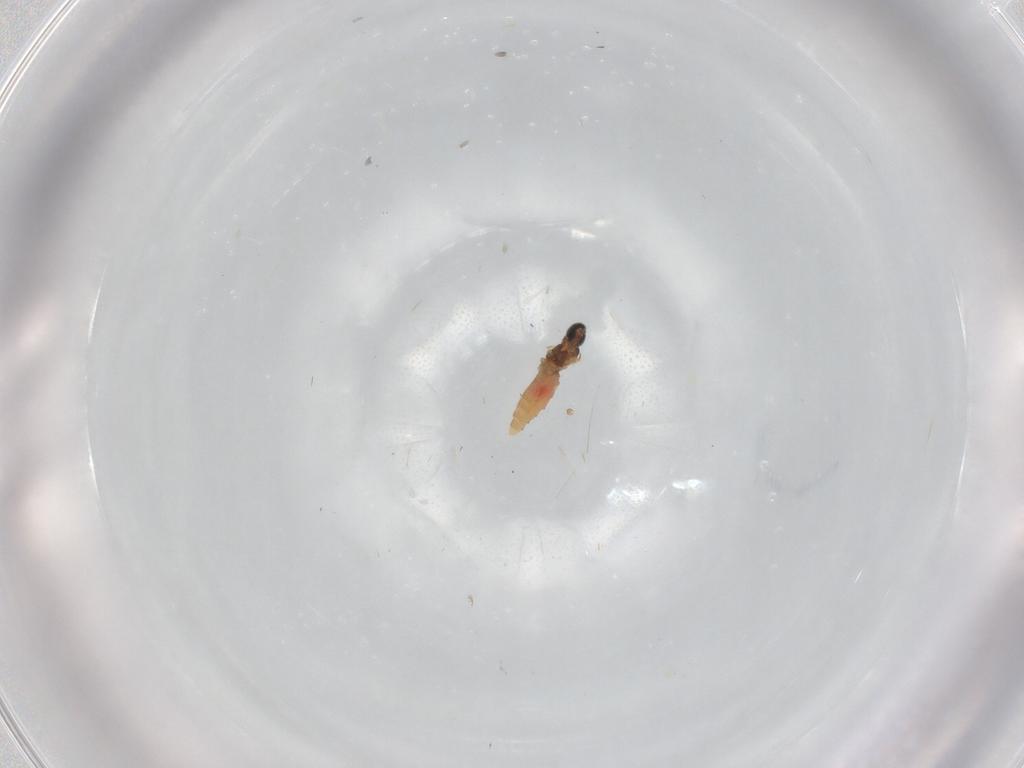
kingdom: Animalia
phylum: Arthropoda
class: Insecta
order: Diptera
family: Cecidomyiidae
